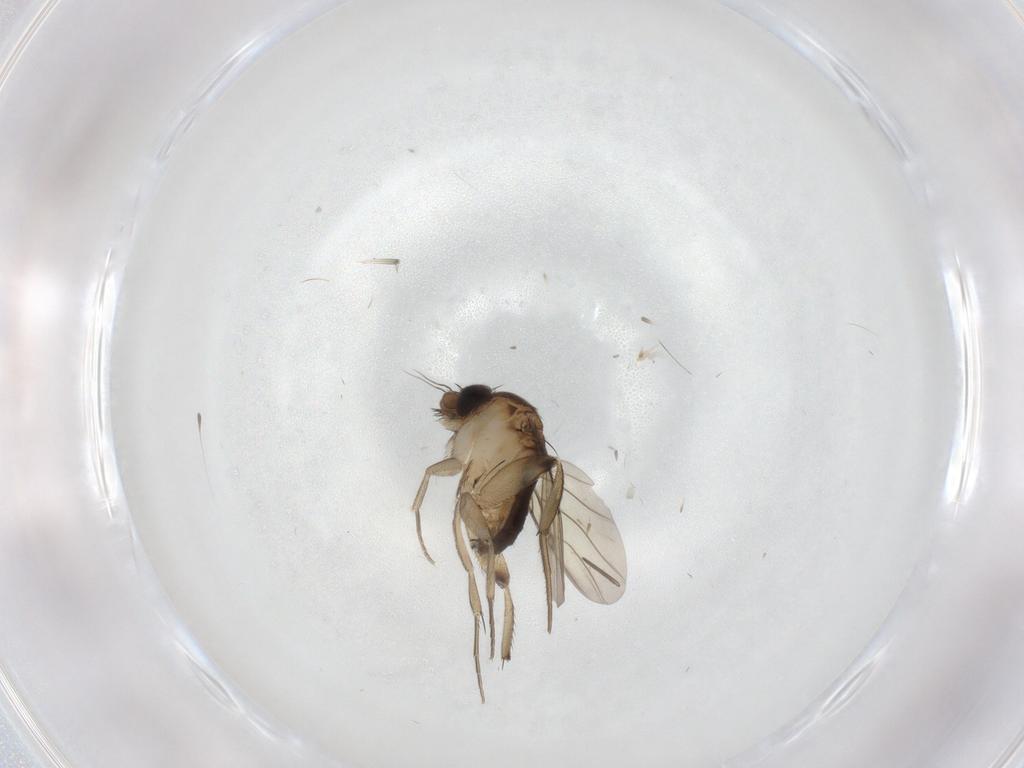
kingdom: Animalia
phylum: Arthropoda
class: Insecta
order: Diptera
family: Phoridae
